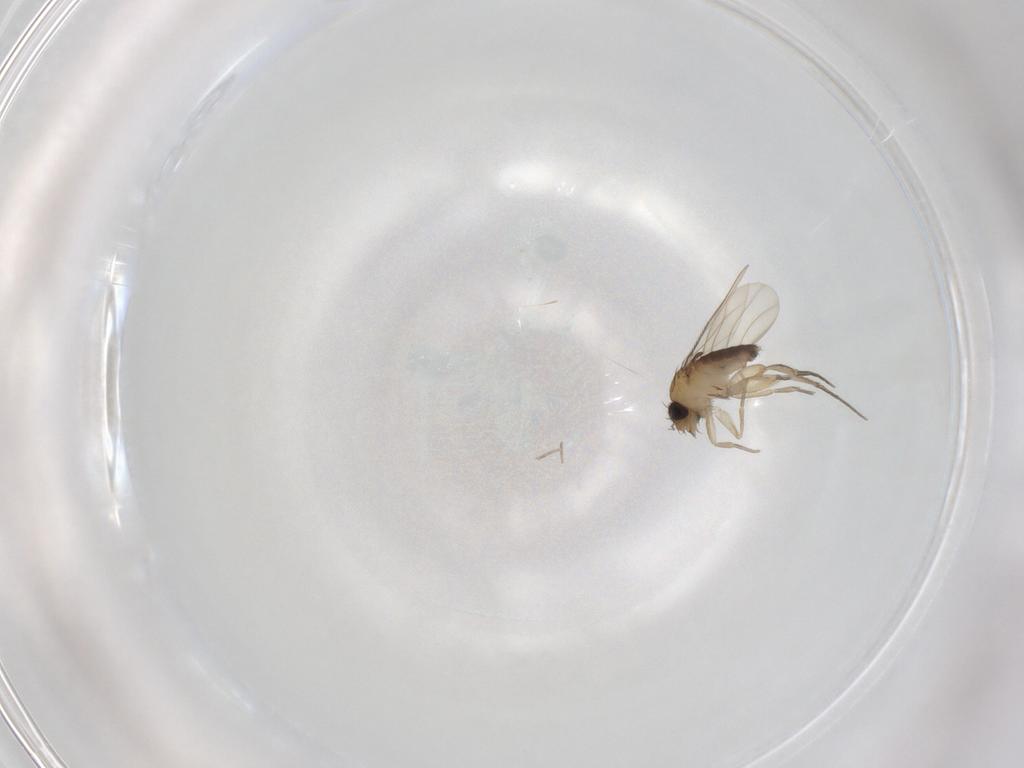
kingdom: Animalia
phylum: Arthropoda
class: Insecta
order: Diptera
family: Phoridae
